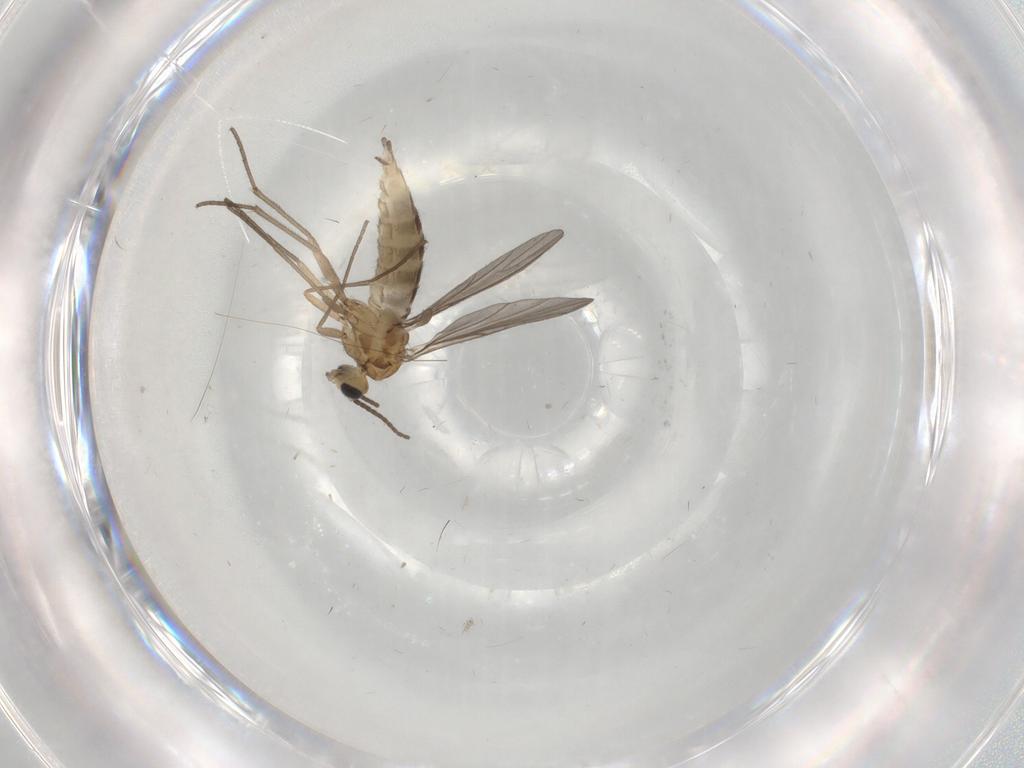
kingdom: Animalia
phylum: Arthropoda
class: Insecta
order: Diptera
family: Sciaridae
